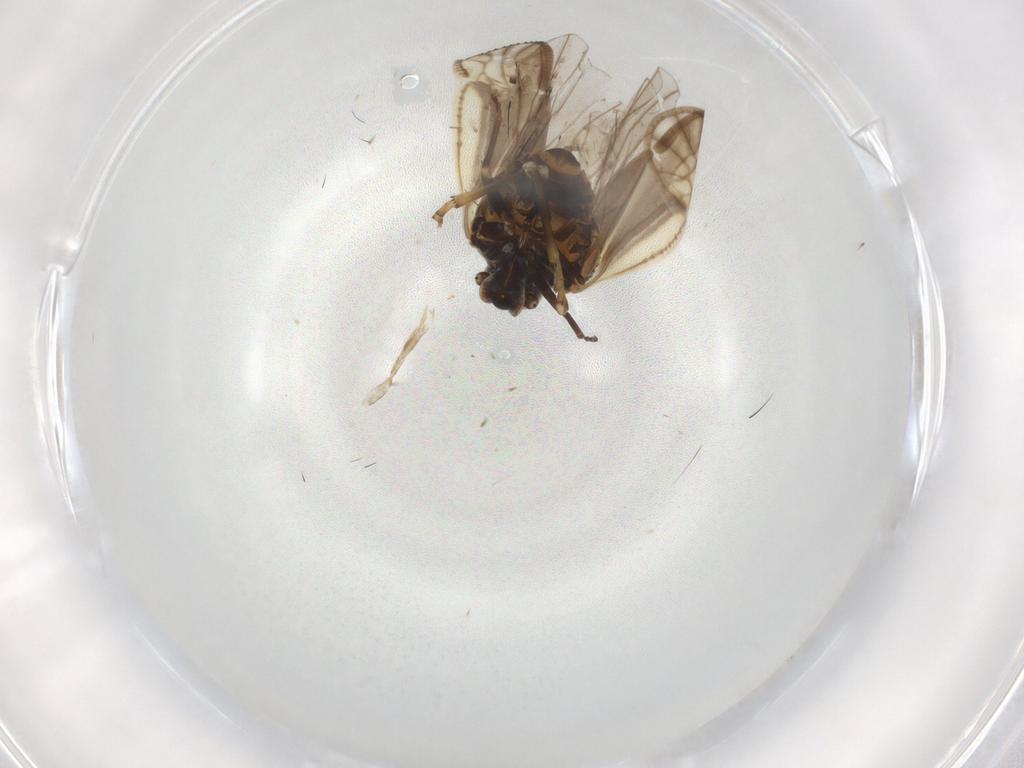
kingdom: Animalia
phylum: Arthropoda
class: Insecta
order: Hemiptera
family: Meenoplidae
